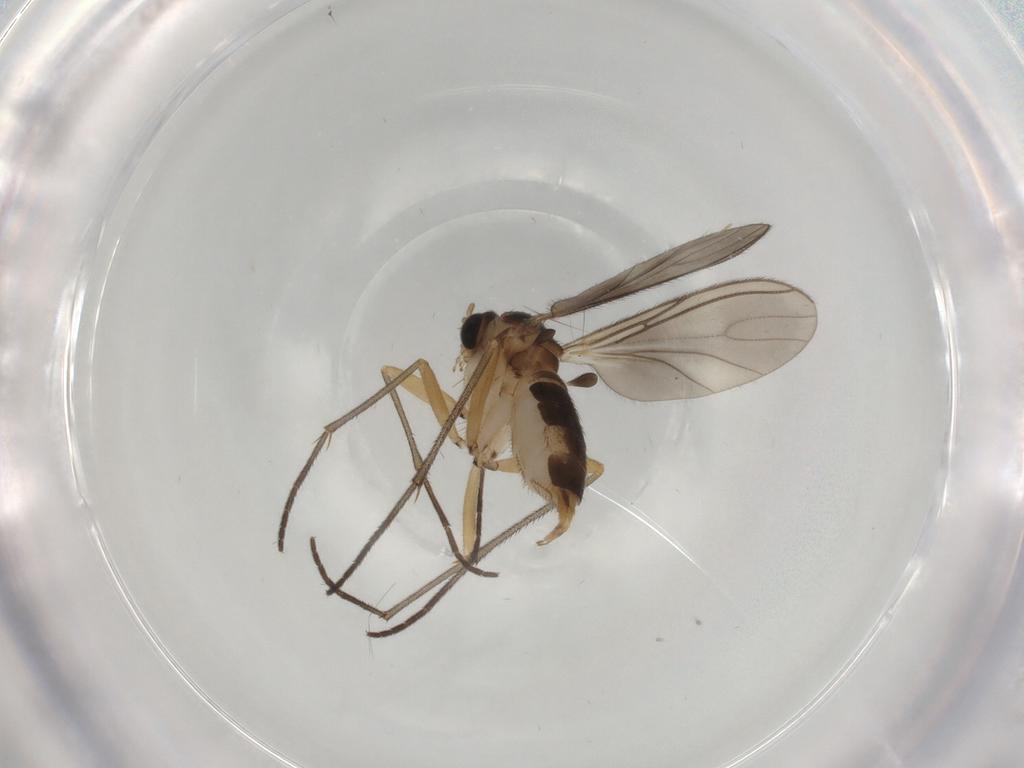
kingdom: Animalia
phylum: Arthropoda
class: Insecta
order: Diptera
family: Sciaridae
